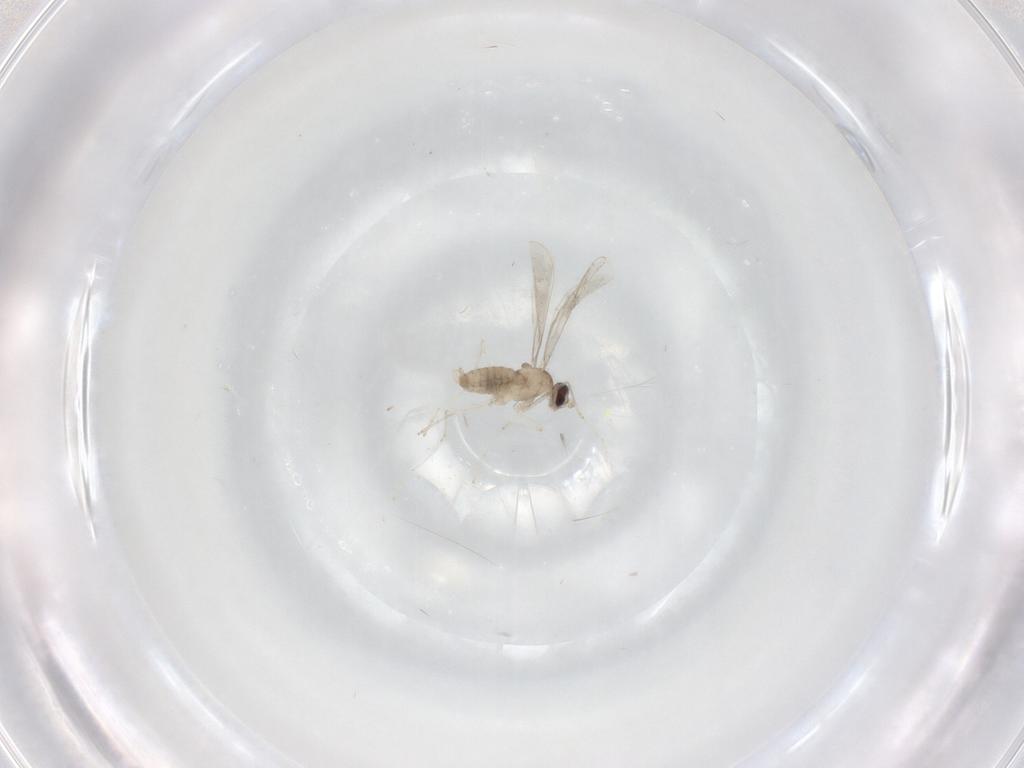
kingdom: Animalia
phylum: Arthropoda
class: Insecta
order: Diptera
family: Cecidomyiidae
